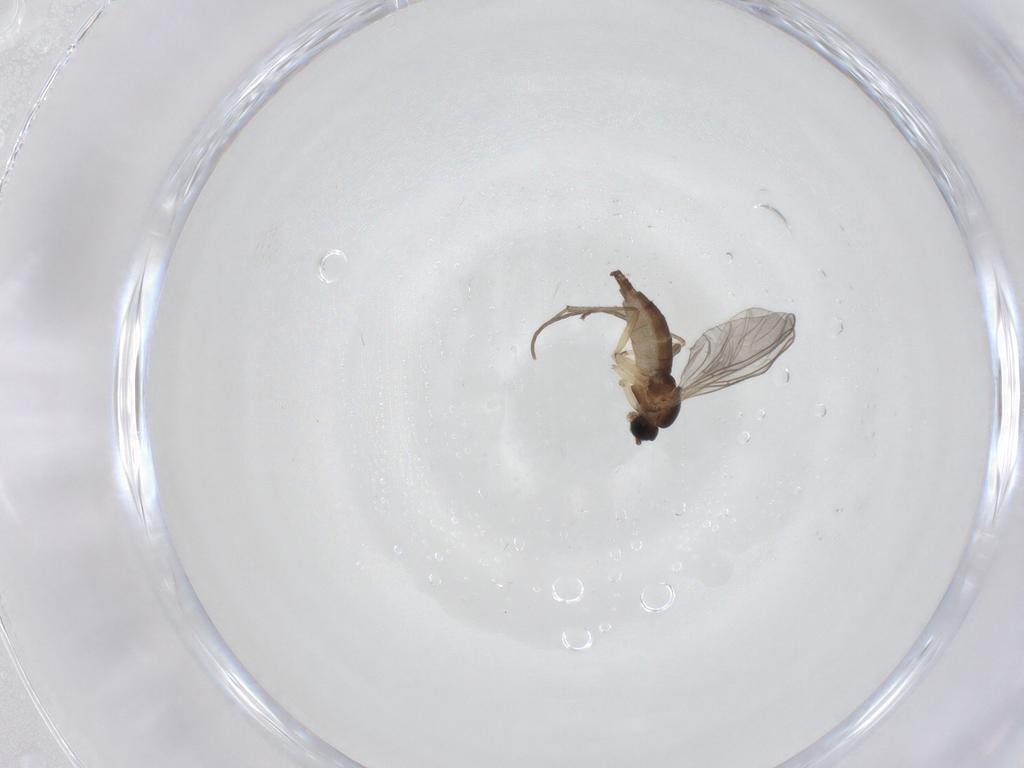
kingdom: Animalia
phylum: Arthropoda
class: Insecta
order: Diptera
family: Sciaridae
